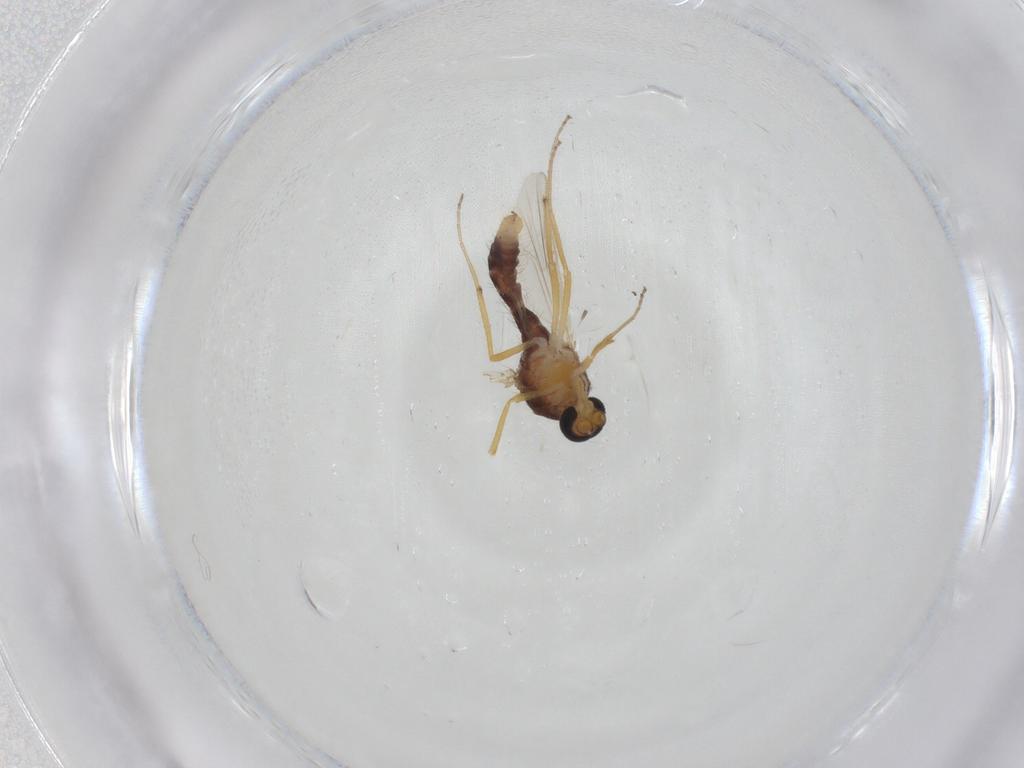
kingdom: Animalia
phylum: Arthropoda
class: Insecta
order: Diptera
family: Ceratopogonidae
